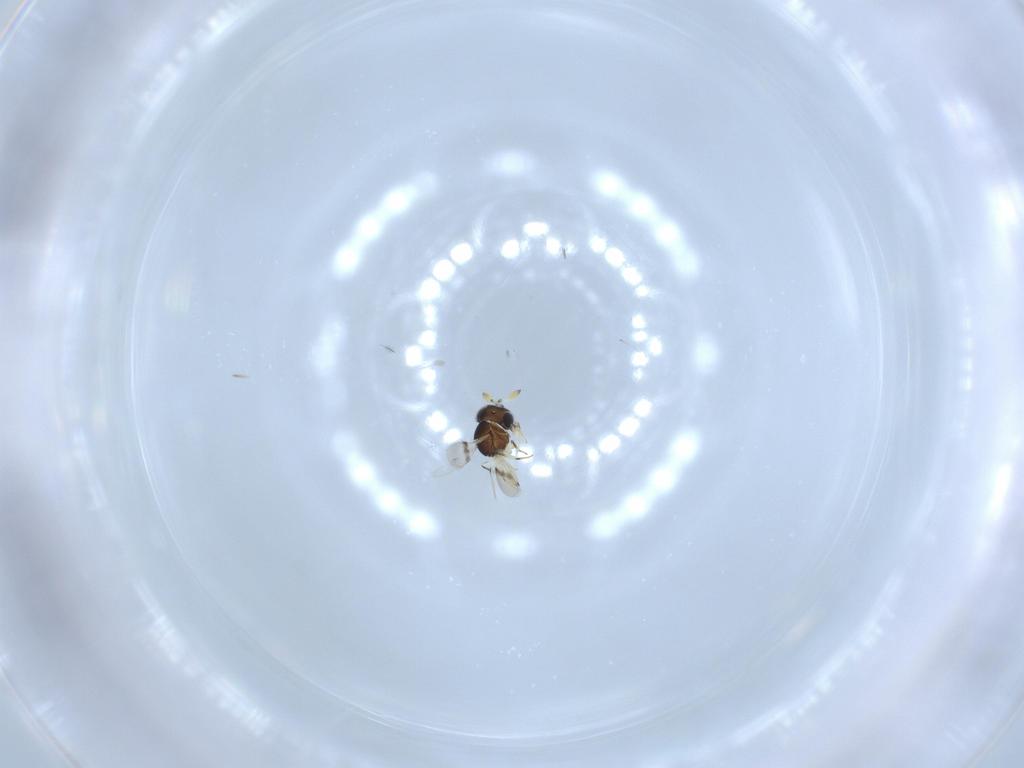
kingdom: Animalia
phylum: Arthropoda
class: Insecta
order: Hymenoptera
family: Scelionidae
